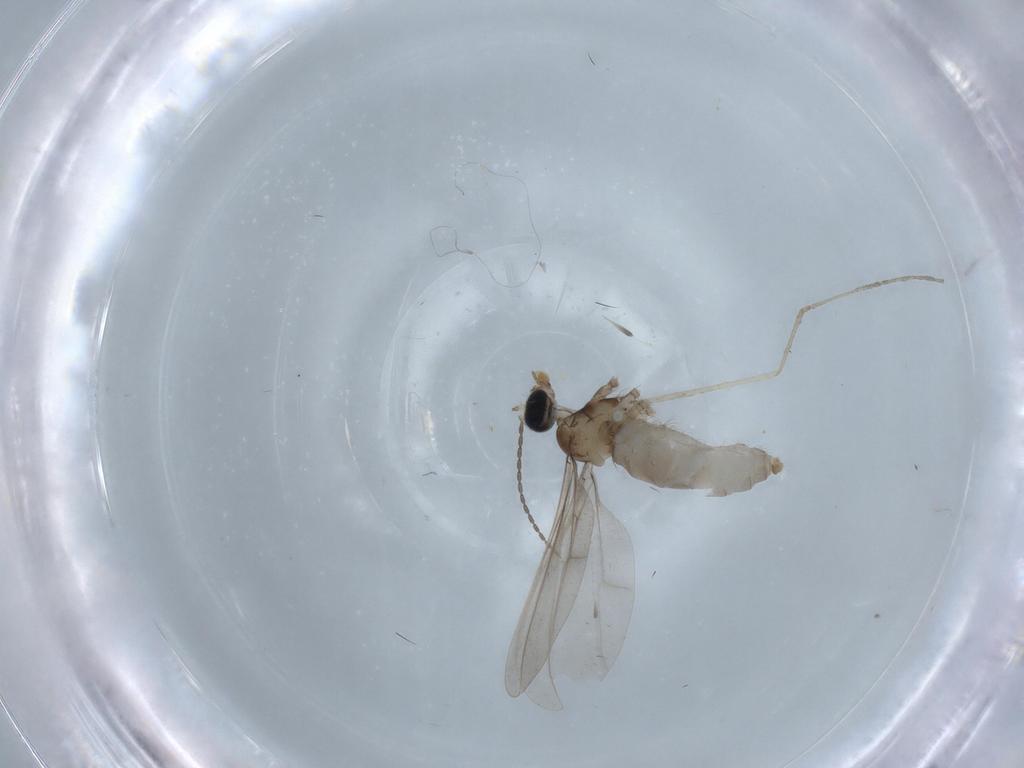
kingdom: Animalia
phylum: Arthropoda
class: Insecta
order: Diptera
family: Limoniidae
